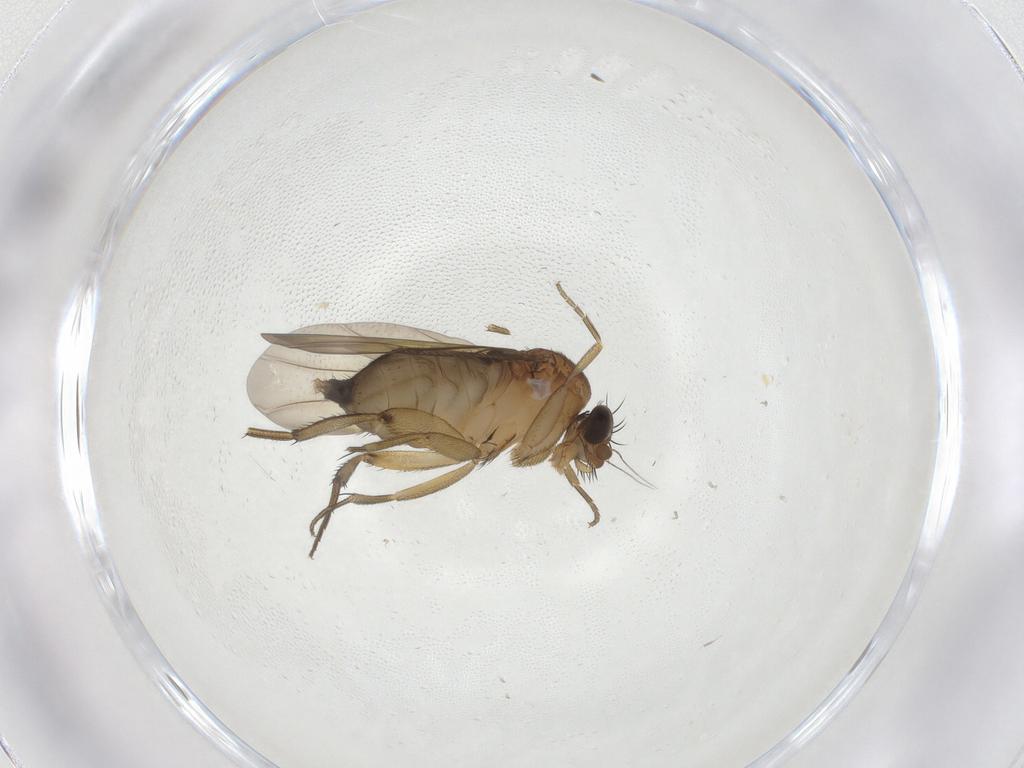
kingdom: Animalia
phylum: Arthropoda
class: Insecta
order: Diptera
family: Phoridae
